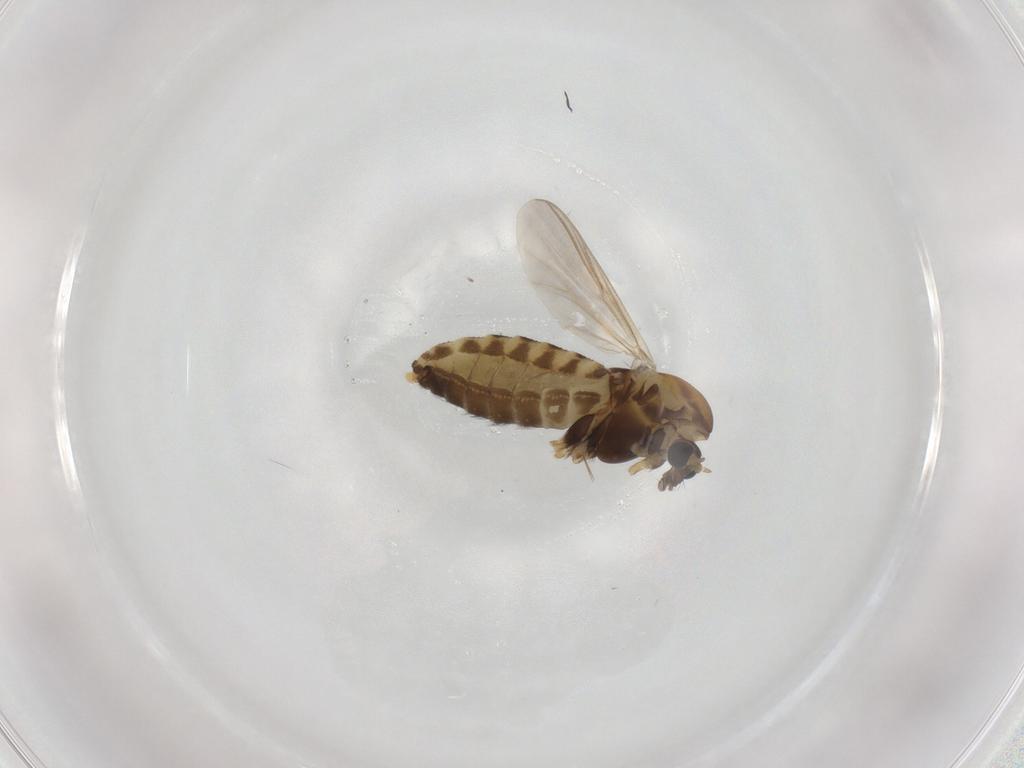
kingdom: Animalia
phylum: Arthropoda
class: Insecta
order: Diptera
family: Chironomidae
